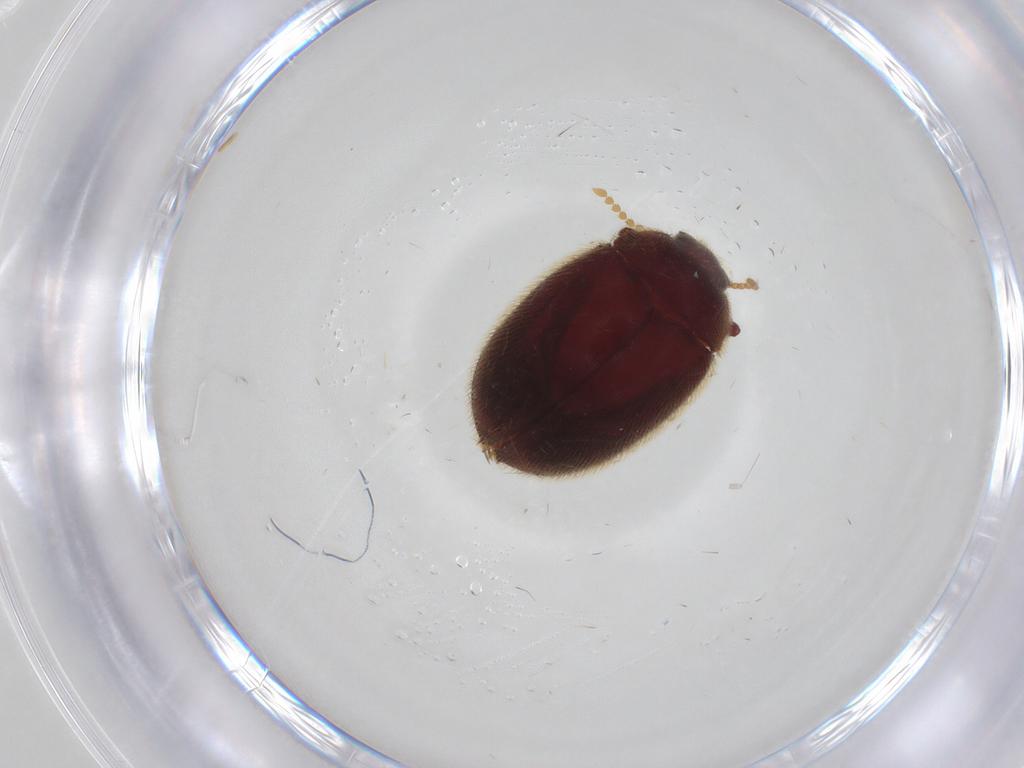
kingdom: Animalia
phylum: Arthropoda
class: Insecta
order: Coleoptera
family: Limnichidae
